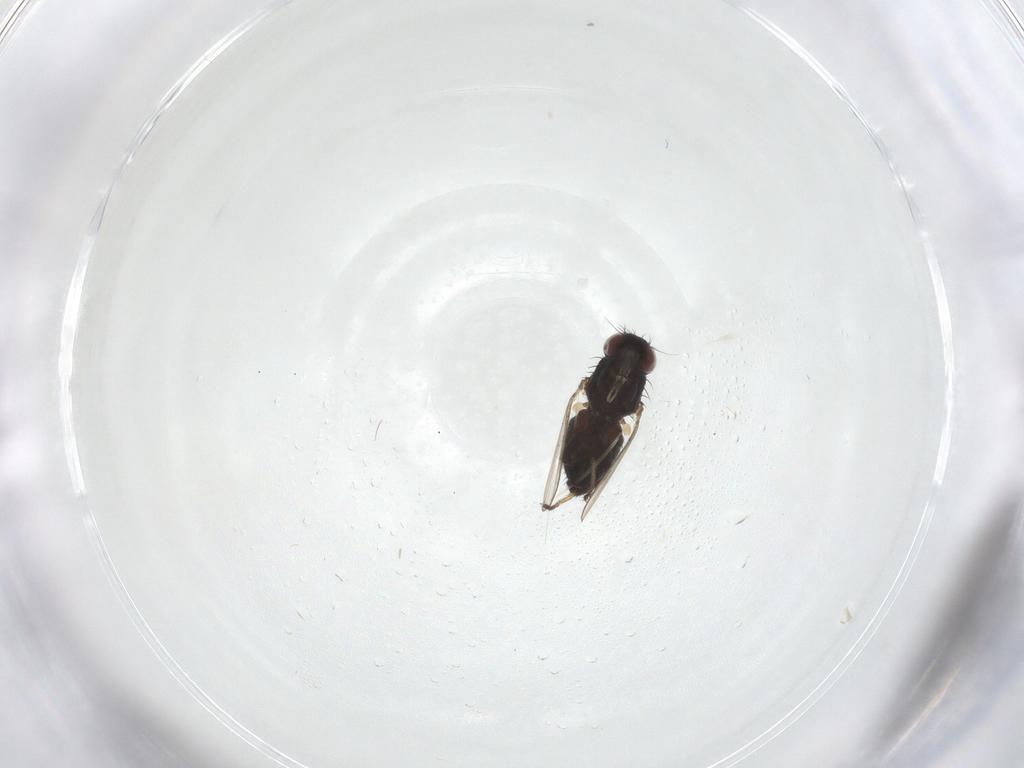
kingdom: Animalia
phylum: Arthropoda
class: Insecta
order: Diptera
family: Milichiidae
